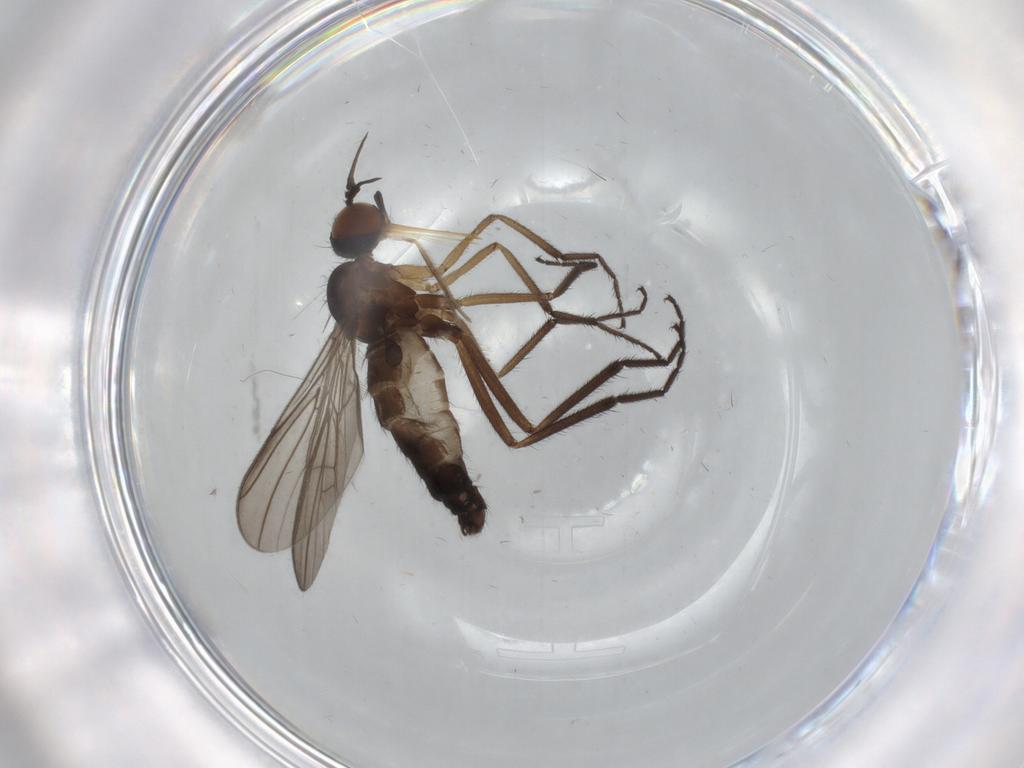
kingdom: Animalia
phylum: Arthropoda
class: Insecta
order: Diptera
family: Empididae
